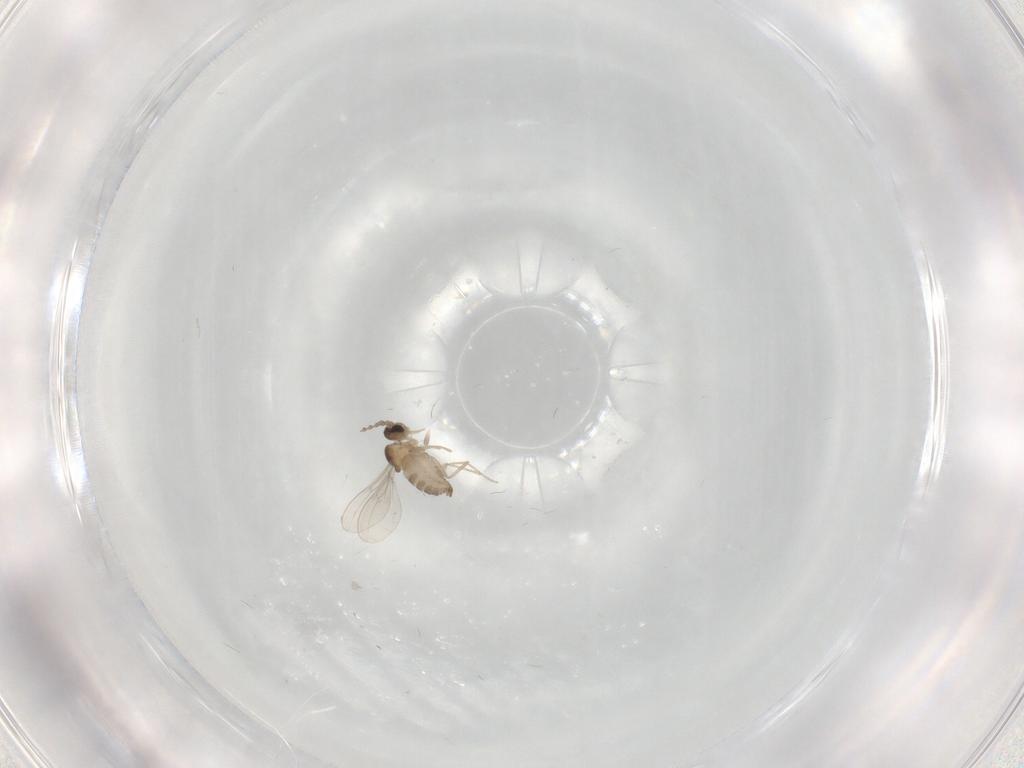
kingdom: Animalia
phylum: Arthropoda
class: Insecta
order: Diptera
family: Cecidomyiidae
